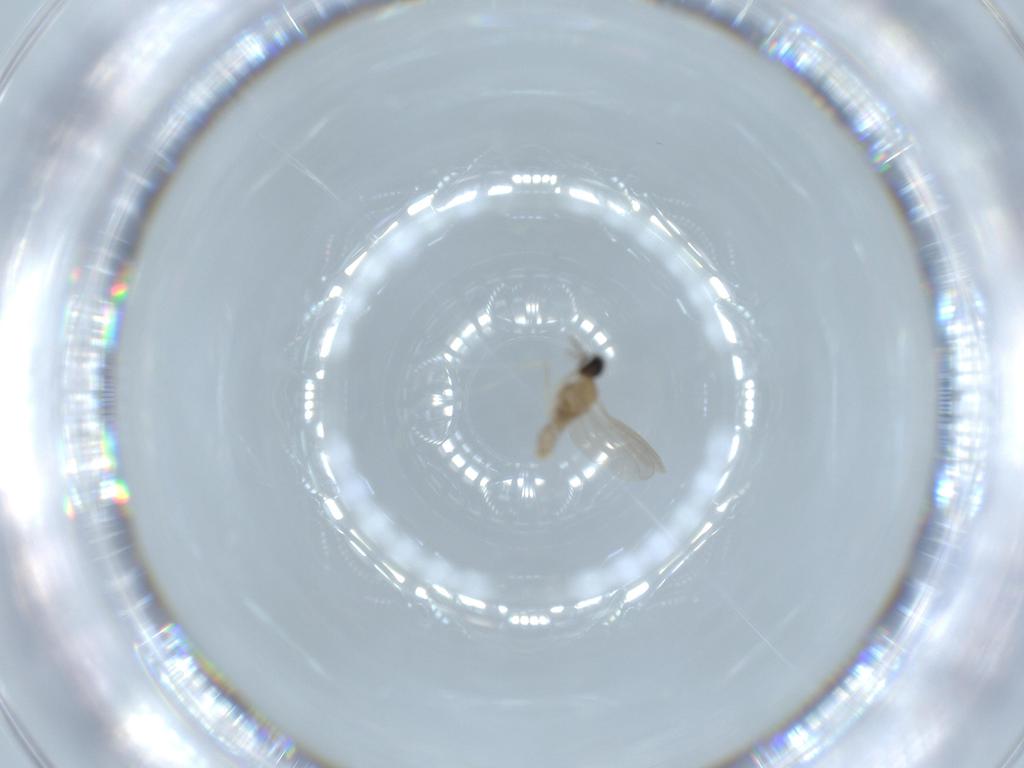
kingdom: Animalia
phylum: Arthropoda
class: Insecta
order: Diptera
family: Cecidomyiidae
